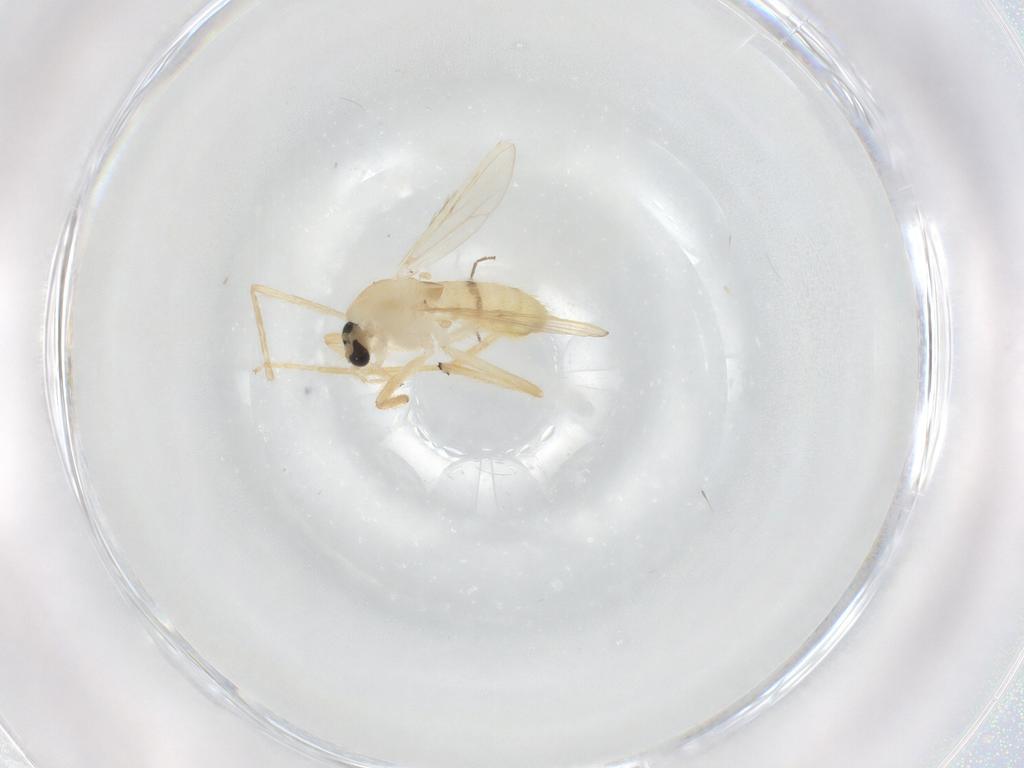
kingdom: Animalia
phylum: Arthropoda
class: Insecta
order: Diptera
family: Chironomidae
